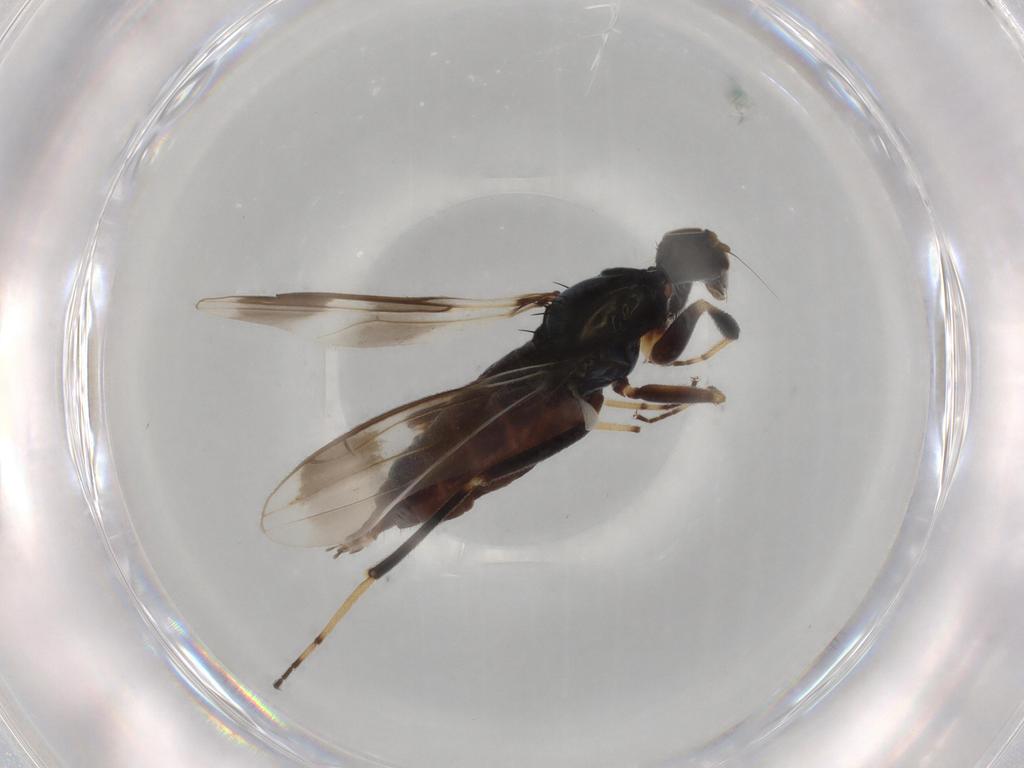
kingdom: Animalia
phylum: Arthropoda
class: Insecta
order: Diptera
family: Hybotidae
